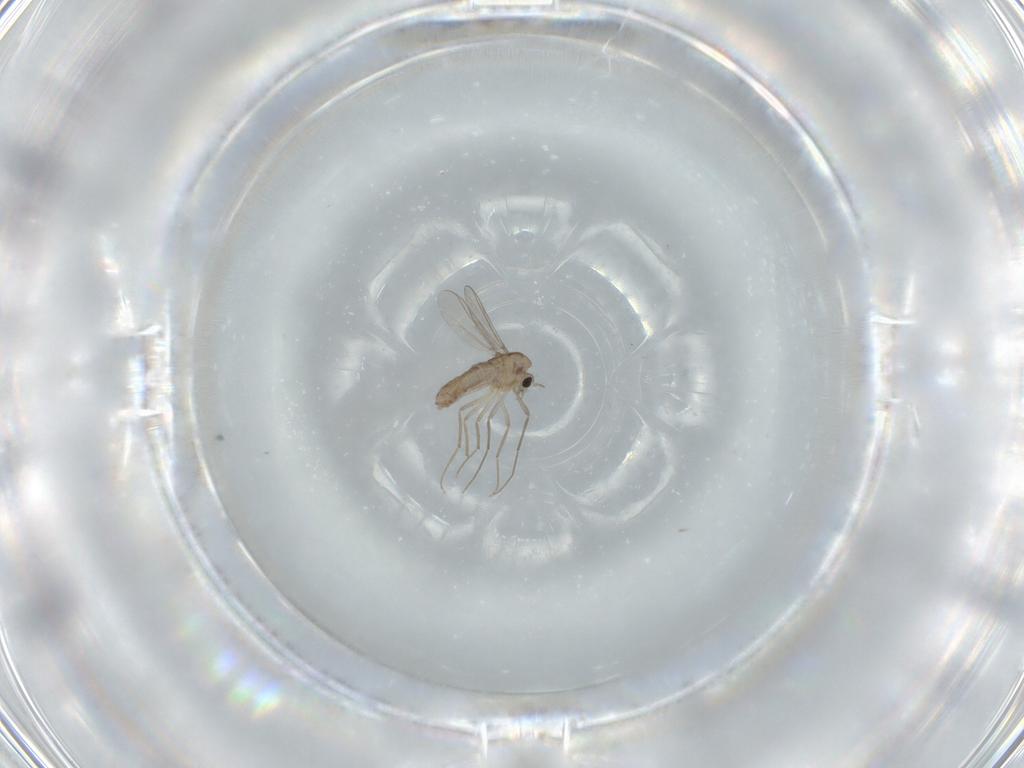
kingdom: Animalia
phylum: Arthropoda
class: Insecta
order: Diptera
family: Chironomidae
